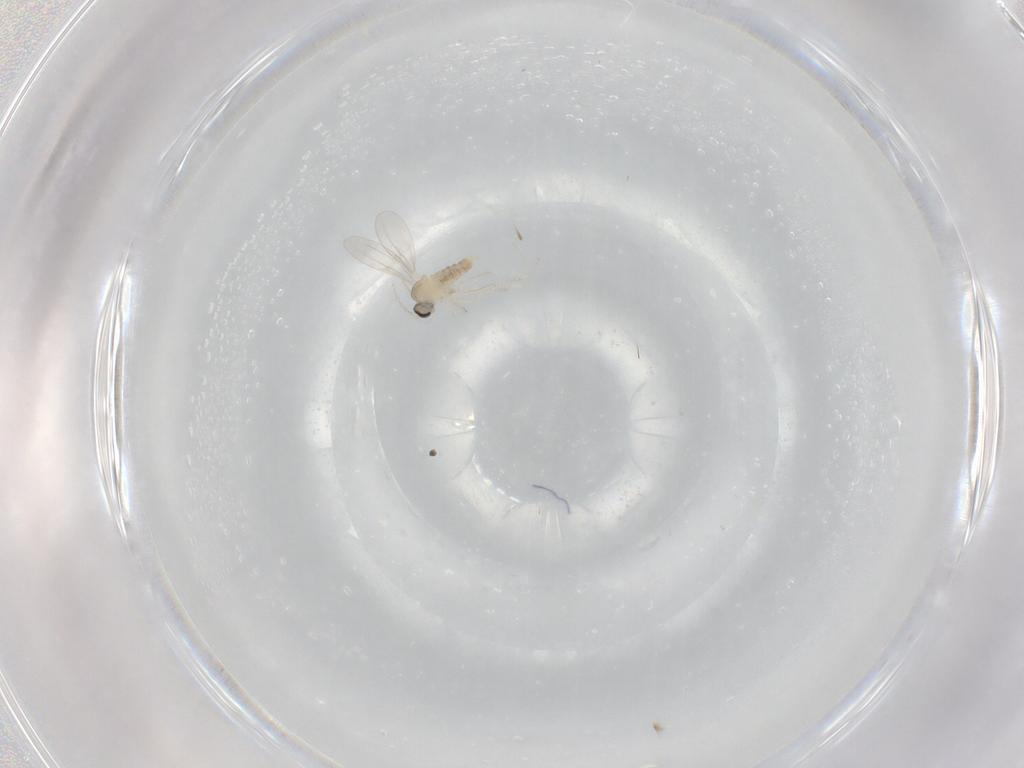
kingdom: Animalia
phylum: Arthropoda
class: Insecta
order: Diptera
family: Cecidomyiidae
